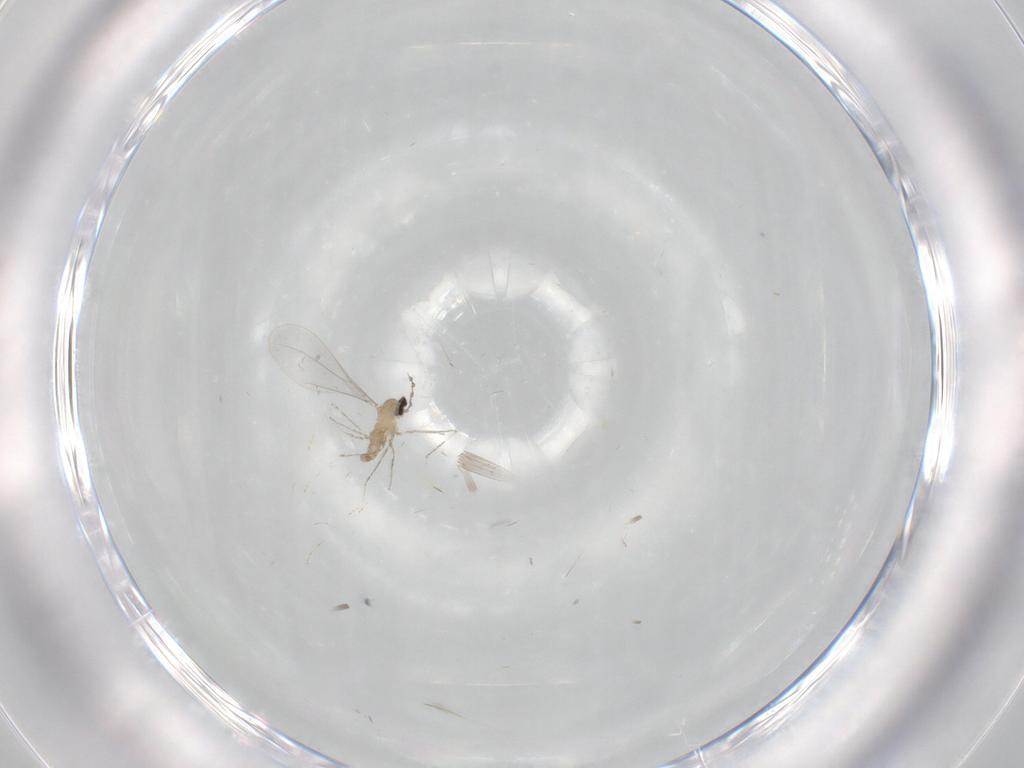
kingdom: Animalia
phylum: Arthropoda
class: Insecta
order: Diptera
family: Cecidomyiidae
